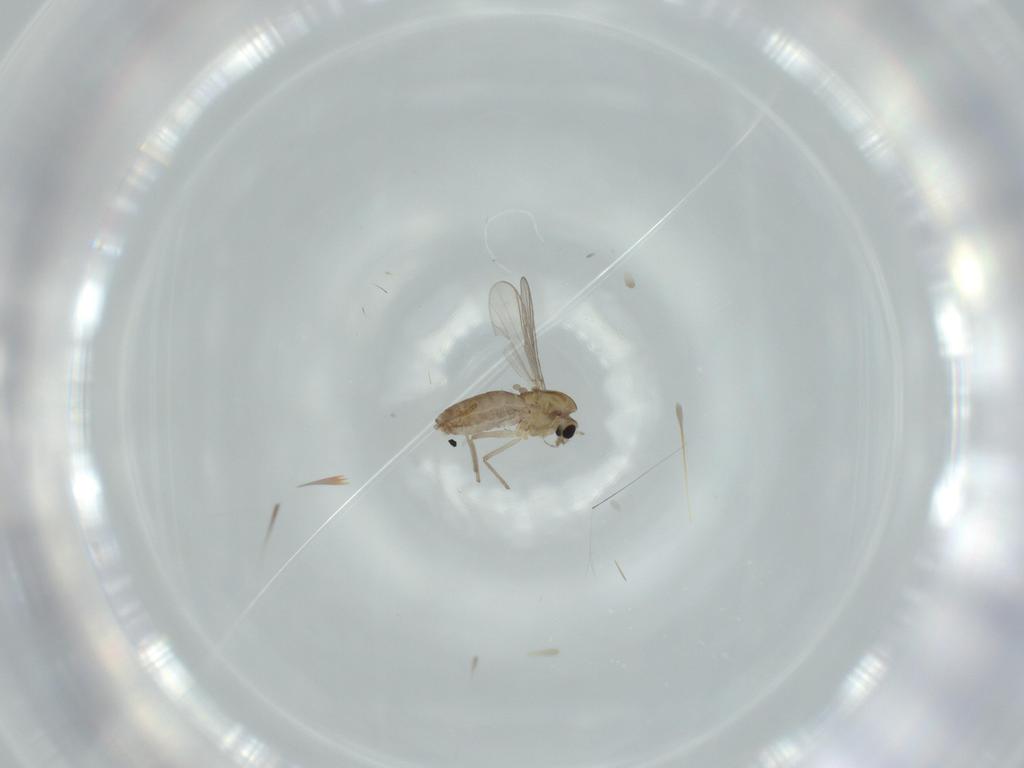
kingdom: Animalia
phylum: Arthropoda
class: Insecta
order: Diptera
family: Chironomidae
